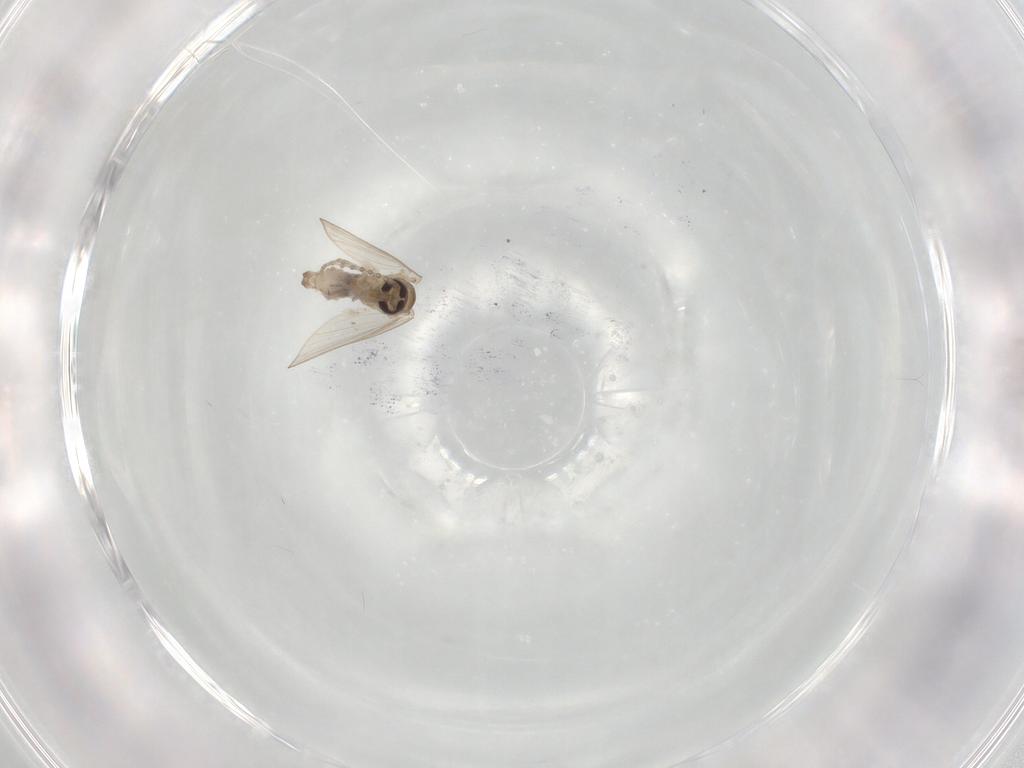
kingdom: Animalia
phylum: Arthropoda
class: Insecta
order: Diptera
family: Psychodidae
